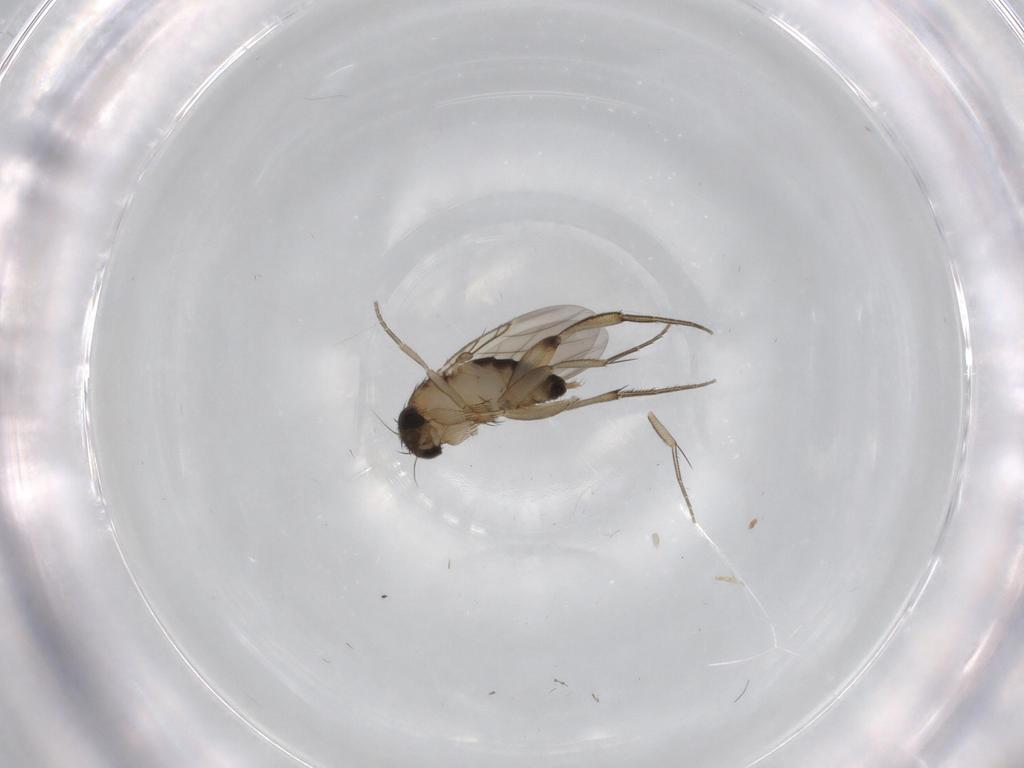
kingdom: Animalia
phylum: Arthropoda
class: Insecta
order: Diptera
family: Phoridae
